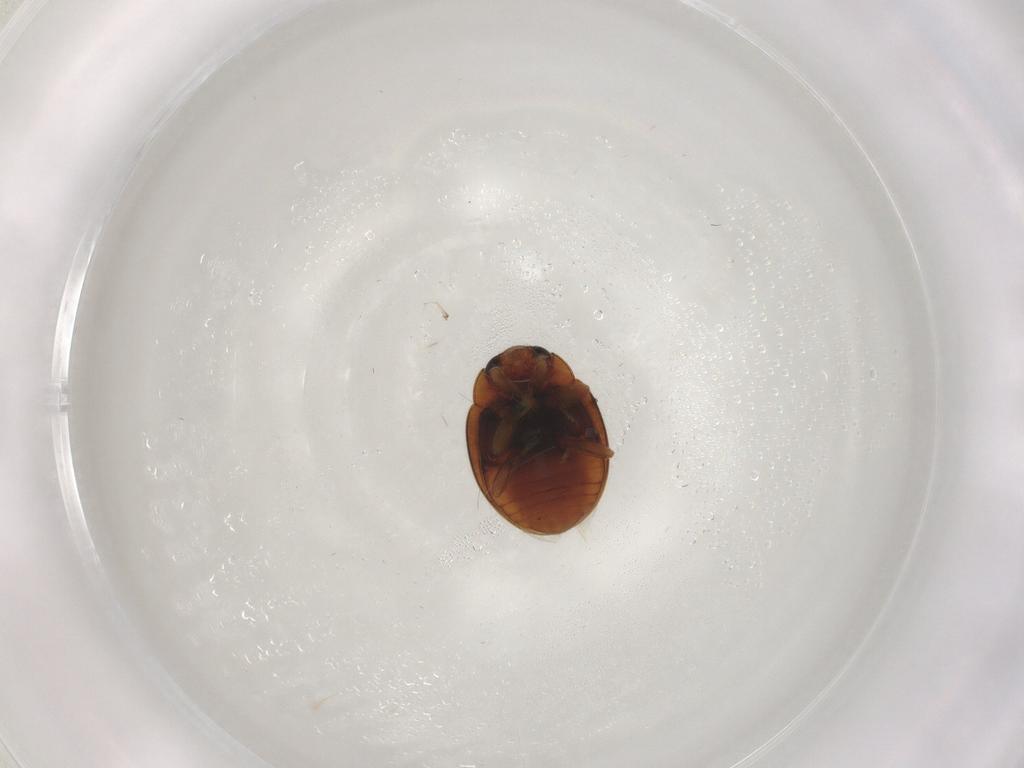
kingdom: Animalia
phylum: Arthropoda
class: Insecta
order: Coleoptera
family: Coccinellidae
